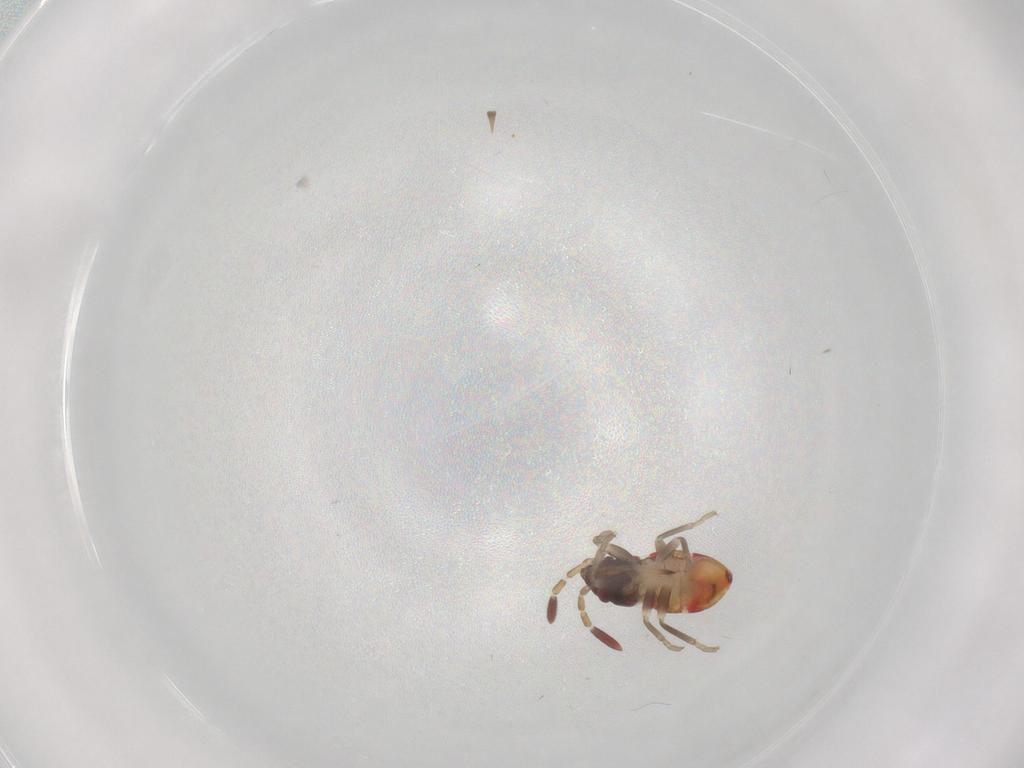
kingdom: Animalia
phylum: Arthropoda
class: Insecta
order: Hemiptera
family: Rhyparochromidae
